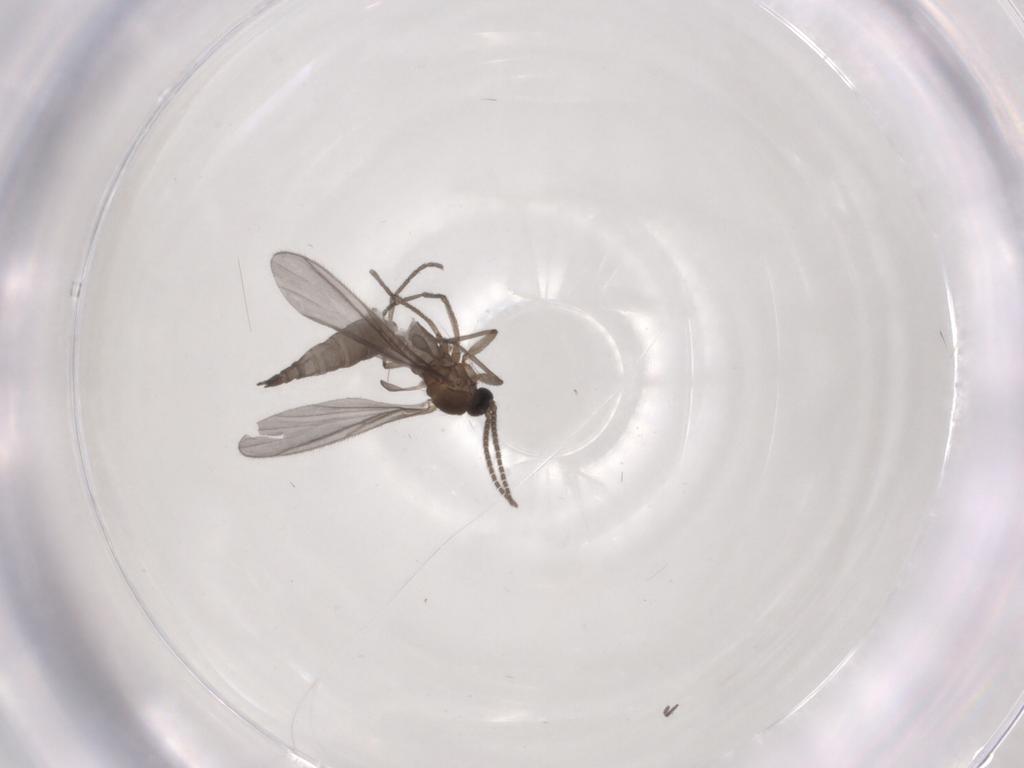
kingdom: Animalia
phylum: Arthropoda
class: Insecta
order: Diptera
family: Sciaridae
